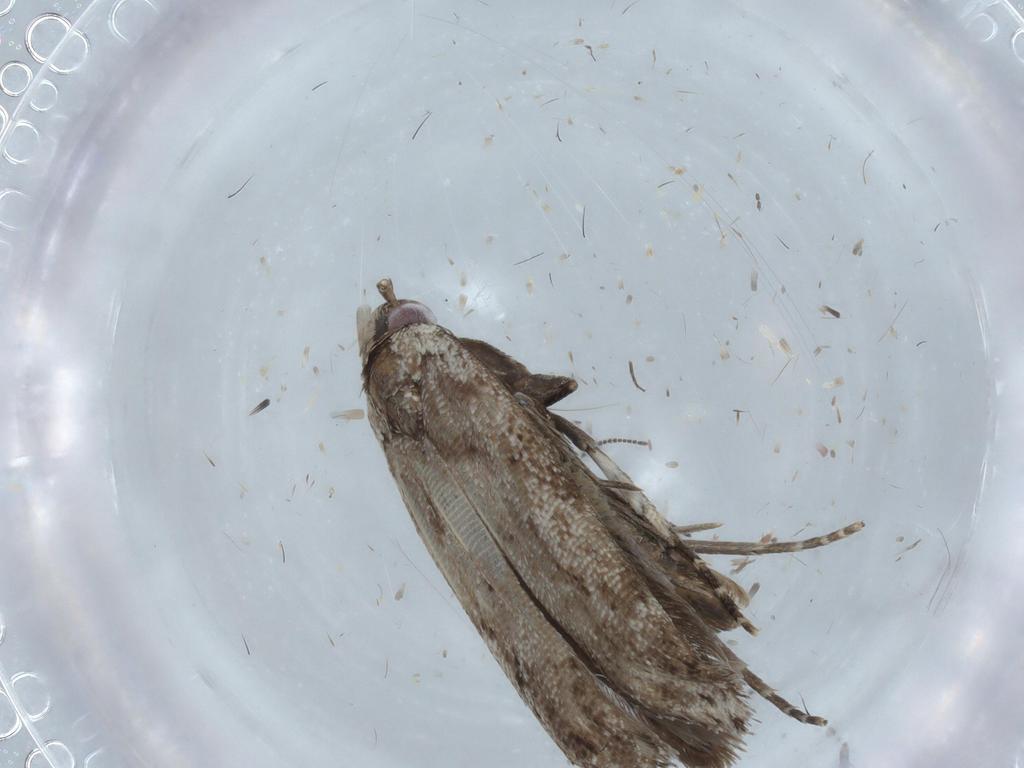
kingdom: Animalia
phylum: Arthropoda
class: Insecta
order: Lepidoptera
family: Gelechiidae
